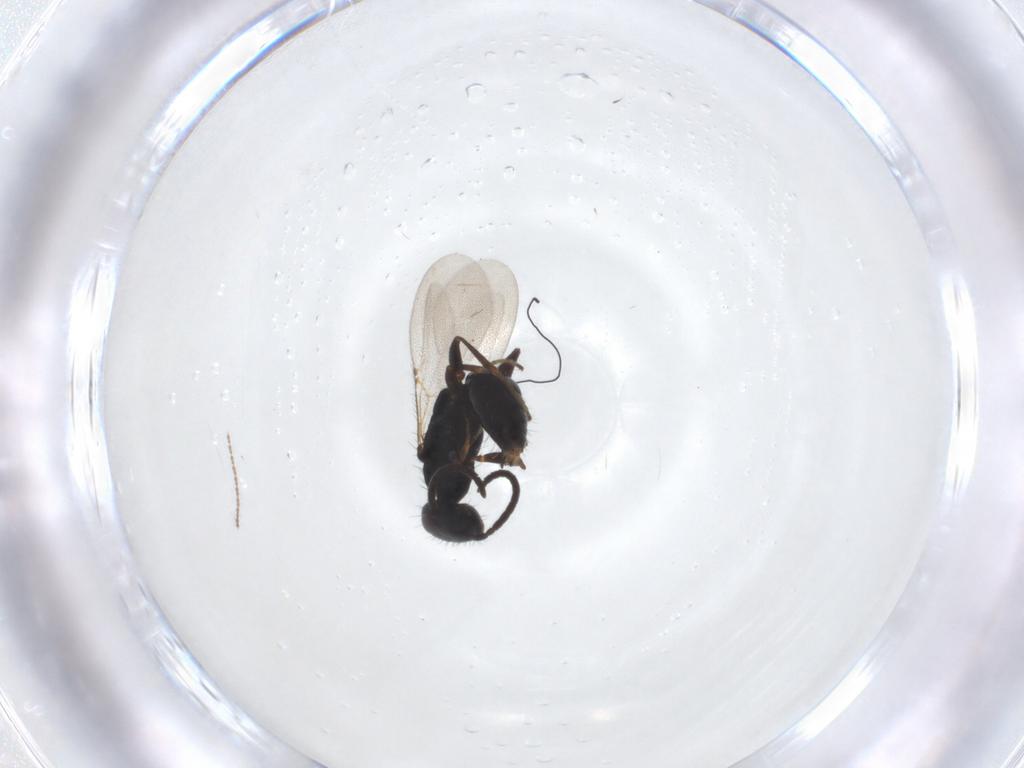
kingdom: Animalia
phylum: Arthropoda
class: Insecta
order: Hymenoptera
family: Bethylidae
